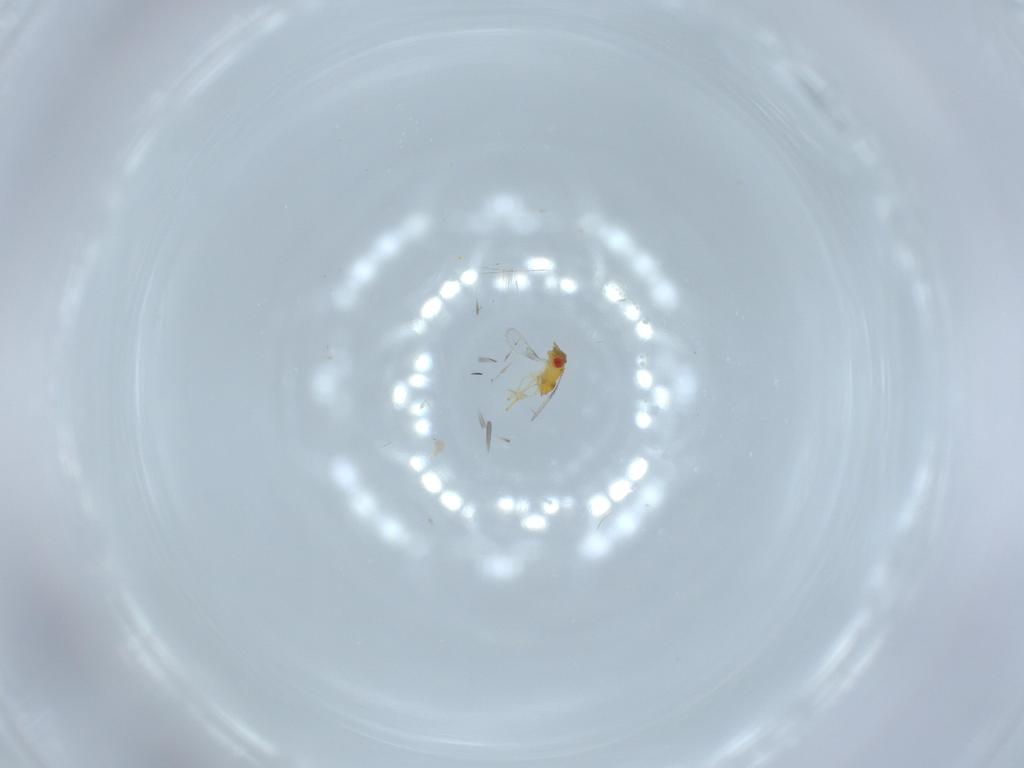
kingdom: Animalia
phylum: Arthropoda
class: Insecta
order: Hymenoptera
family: Trichogrammatidae
